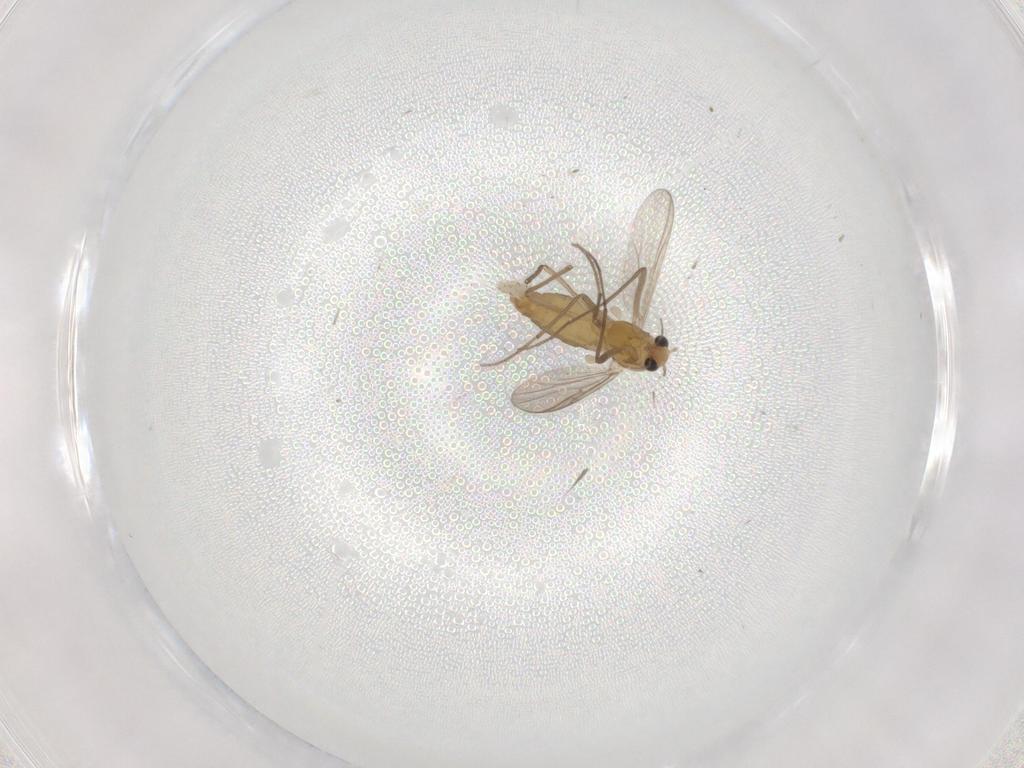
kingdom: Animalia
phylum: Arthropoda
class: Insecta
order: Diptera
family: Chironomidae
